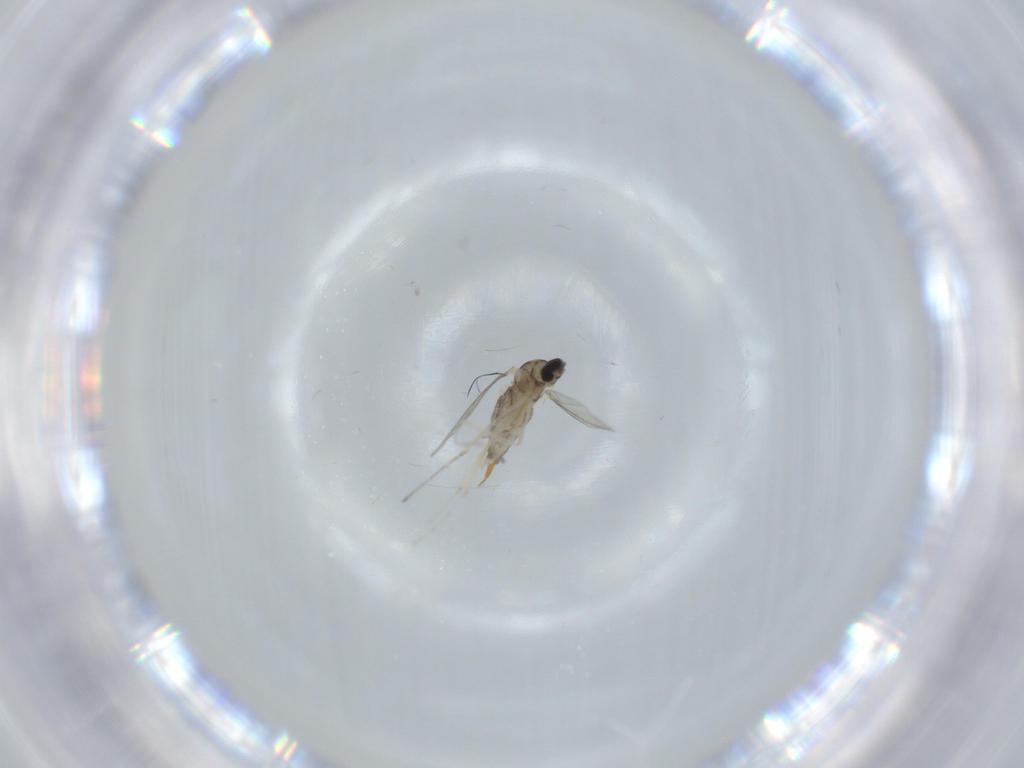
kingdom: Animalia
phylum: Arthropoda
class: Insecta
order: Diptera
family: Cecidomyiidae
